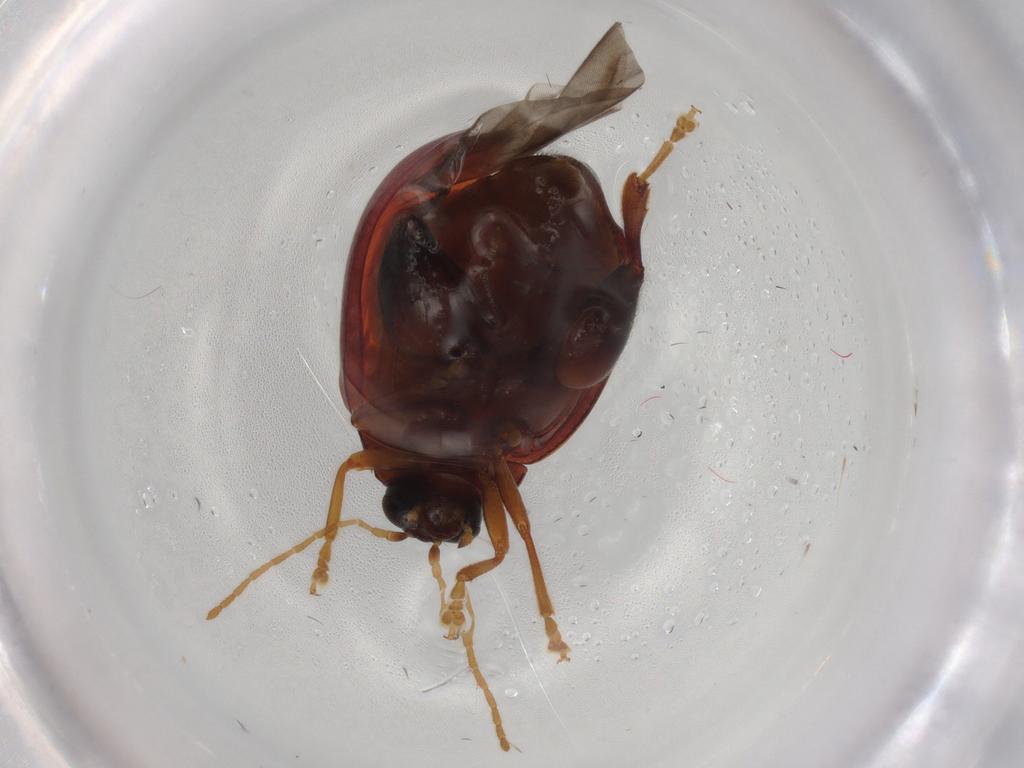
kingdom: Animalia
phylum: Arthropoda
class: Insecta
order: Coleoptera
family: Chrysomelidae
